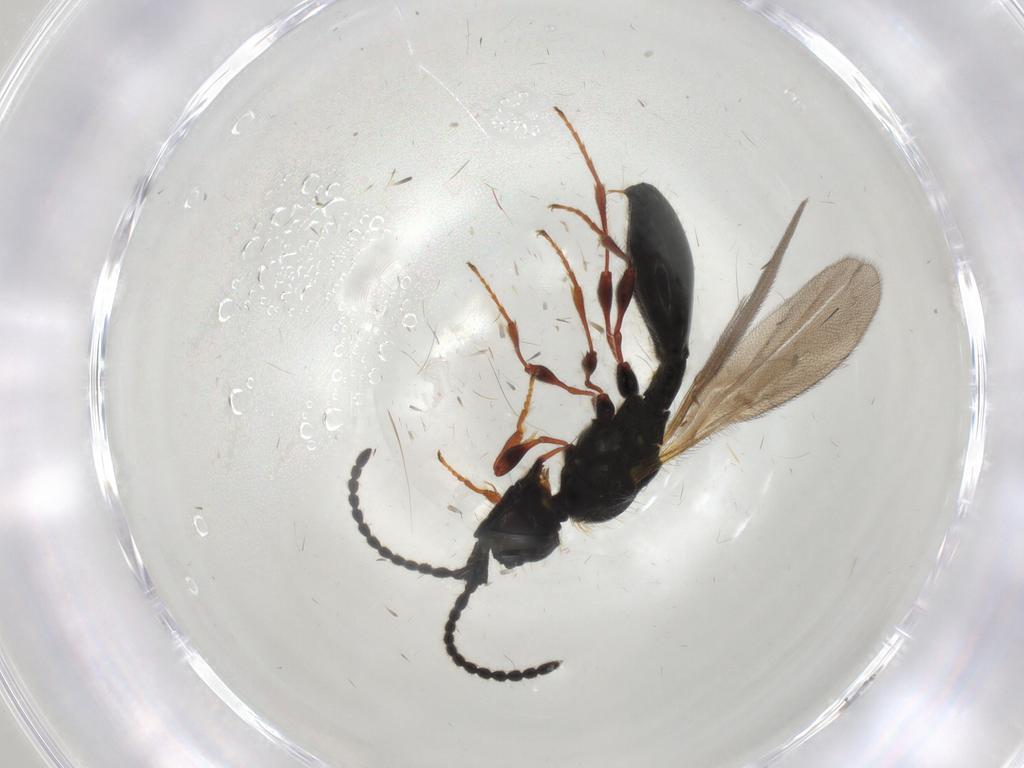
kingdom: Animalia
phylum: Arthropoda
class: Insecta
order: Hymenoptera
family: Diapriidae
